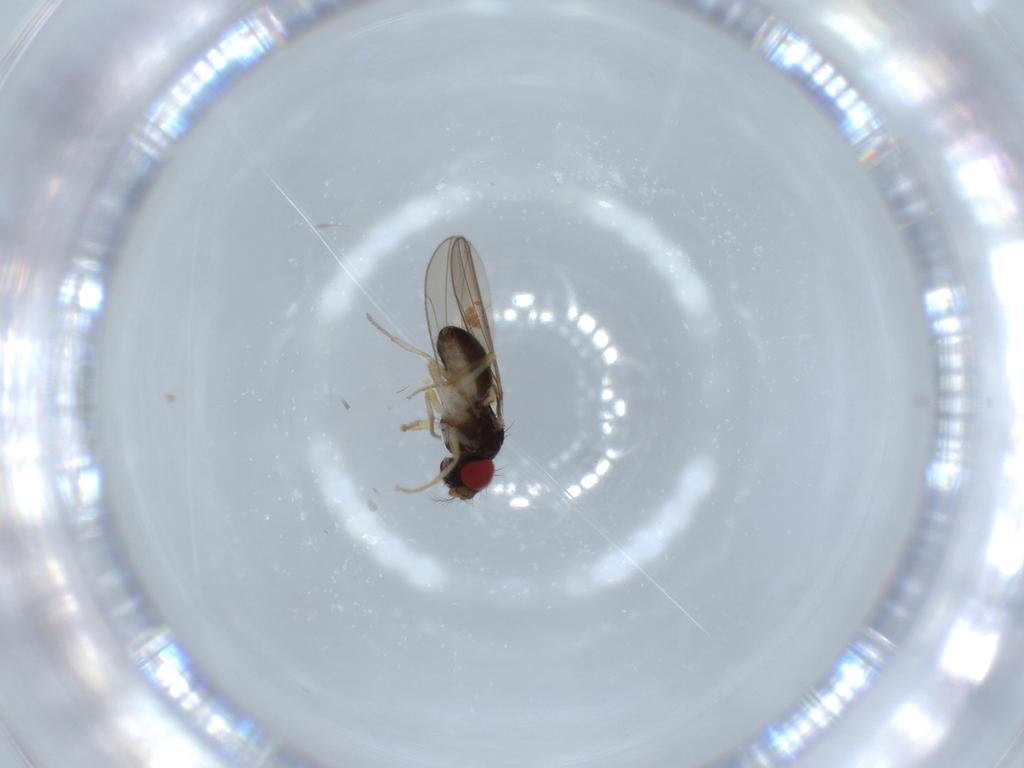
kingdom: Animalia
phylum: Arthropoda
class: Insecta
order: Diptera
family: Drosophilidae
